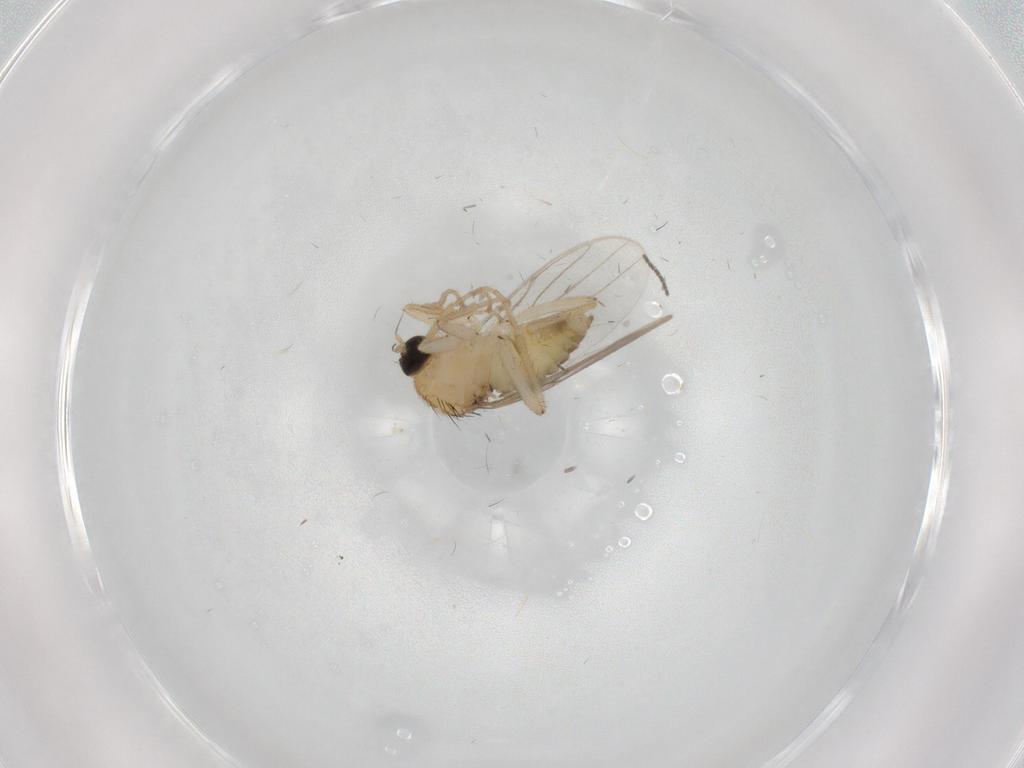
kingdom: Animalia
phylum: Arthropoda
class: Insecta
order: Diptera
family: Hybotidae
